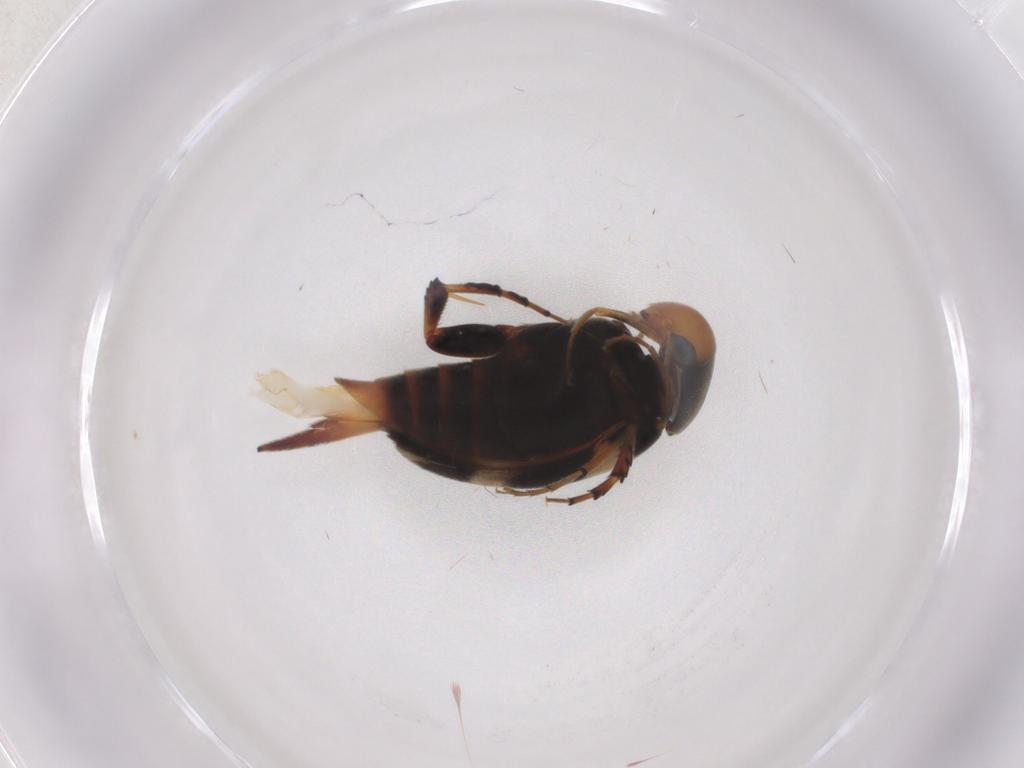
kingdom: Animalia
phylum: Arthropoda
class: Insecta
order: Coleoptera
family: Mordellidae
